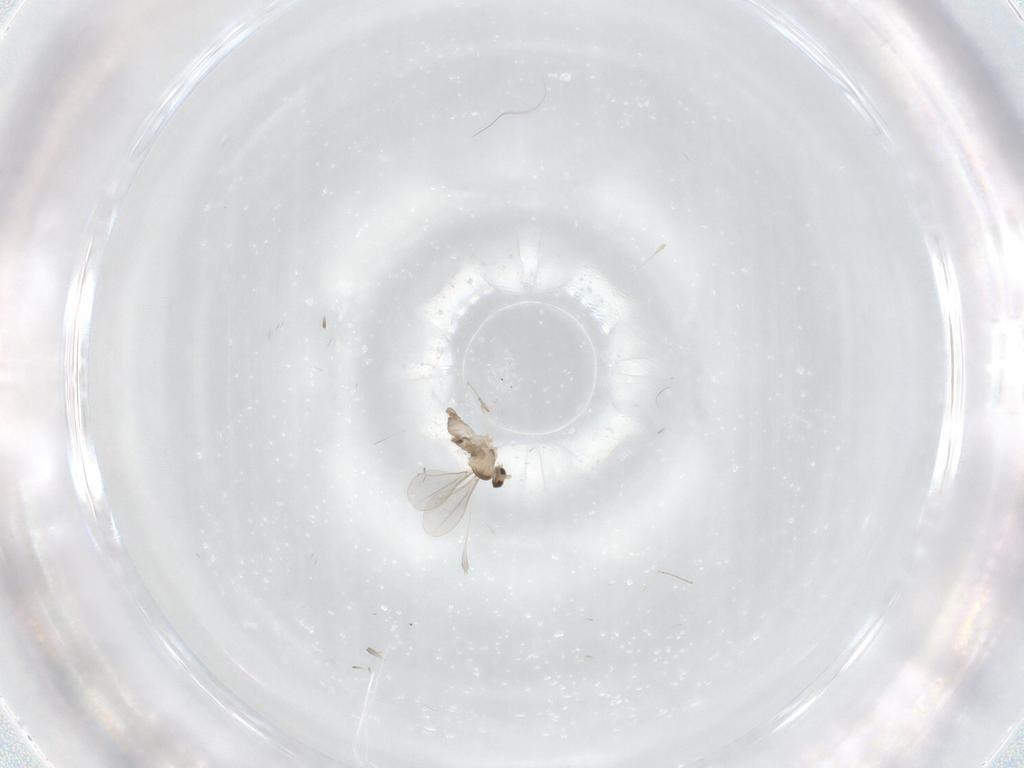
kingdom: Animalia
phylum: Arthropoda
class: Insecta
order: Diptera
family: Cecidomyiidae
